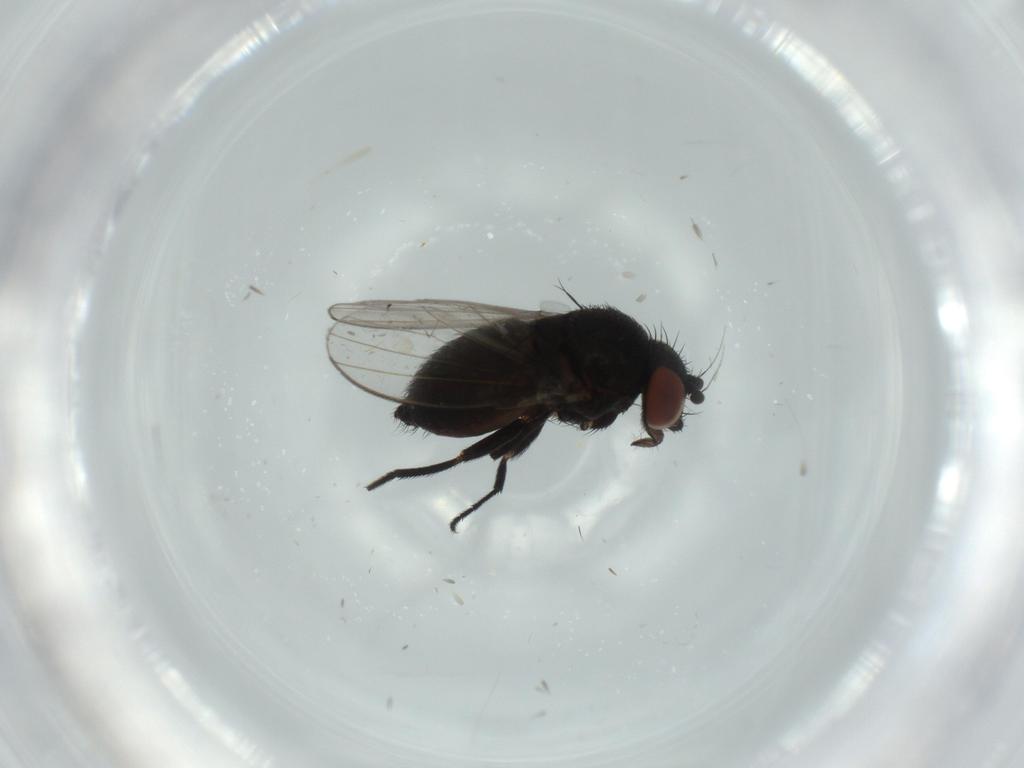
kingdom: Animalia
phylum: Arthropoda
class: Insecta
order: Diptera
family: Milichiidae
